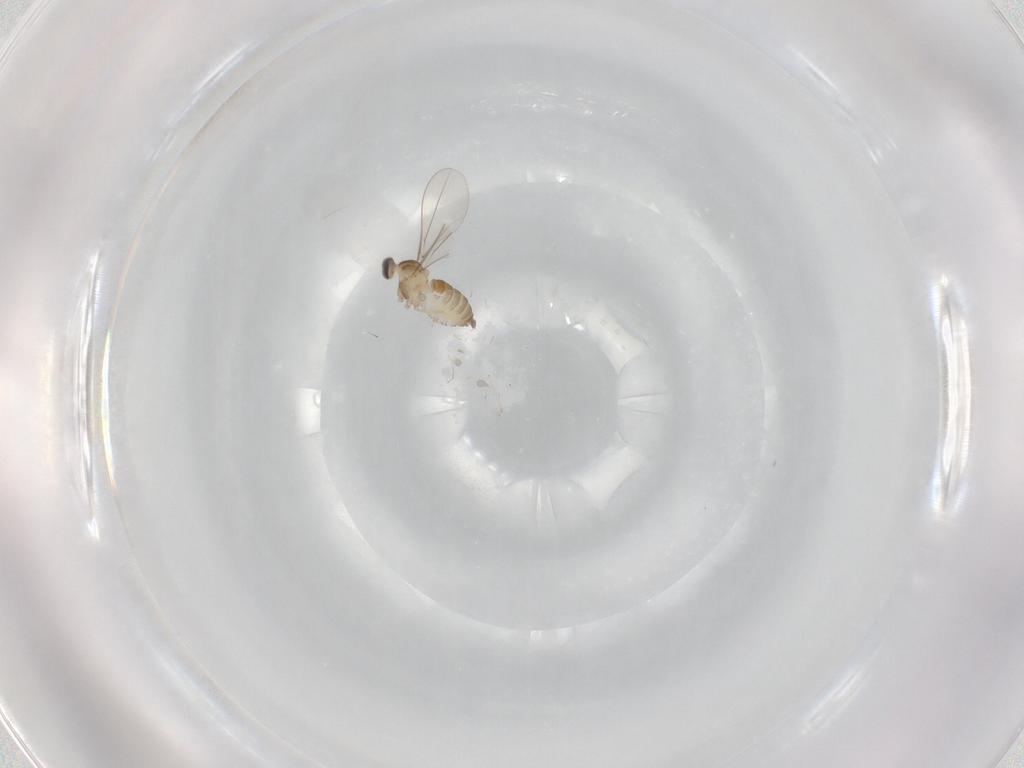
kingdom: Animalia
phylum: Arthropoda
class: Insecta
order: Diptera
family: Cecidomyiidae
